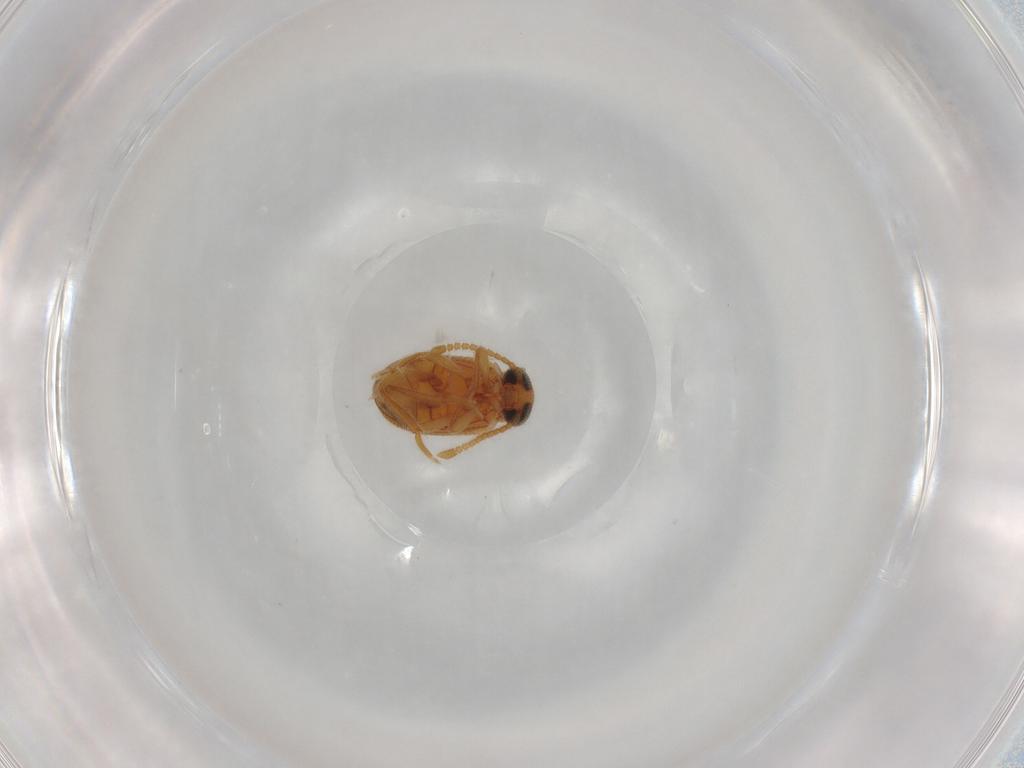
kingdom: Animalia
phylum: Arthropoda
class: Insecta
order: Coleoptera
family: Aderidae
